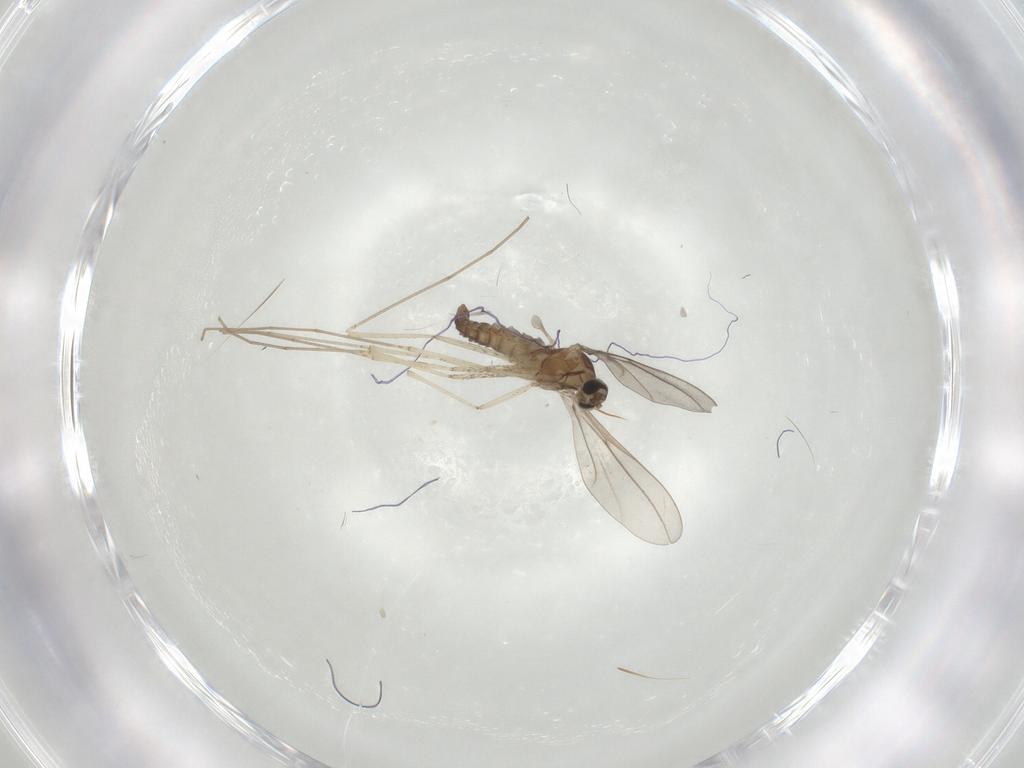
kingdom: Animalia
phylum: Arthropoda
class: Insecta
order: Diptera
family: Cecidomyiidae
